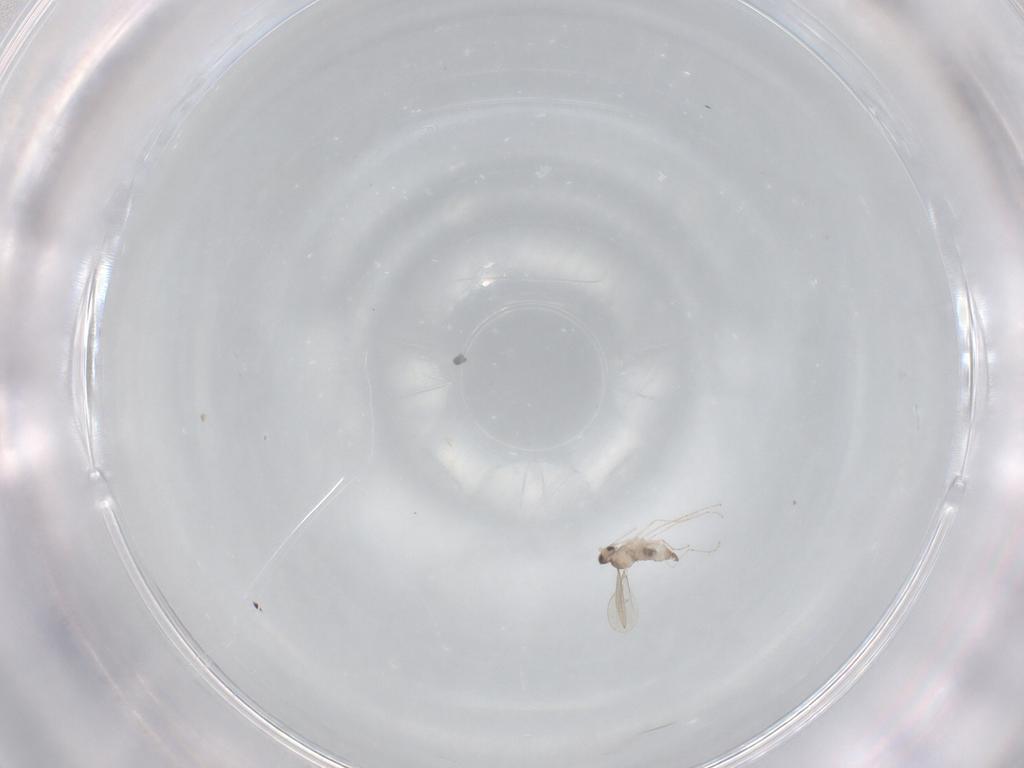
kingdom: Animalia
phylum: Arthropoda
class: Insecta
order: Diptera
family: Cecidomyiidae
